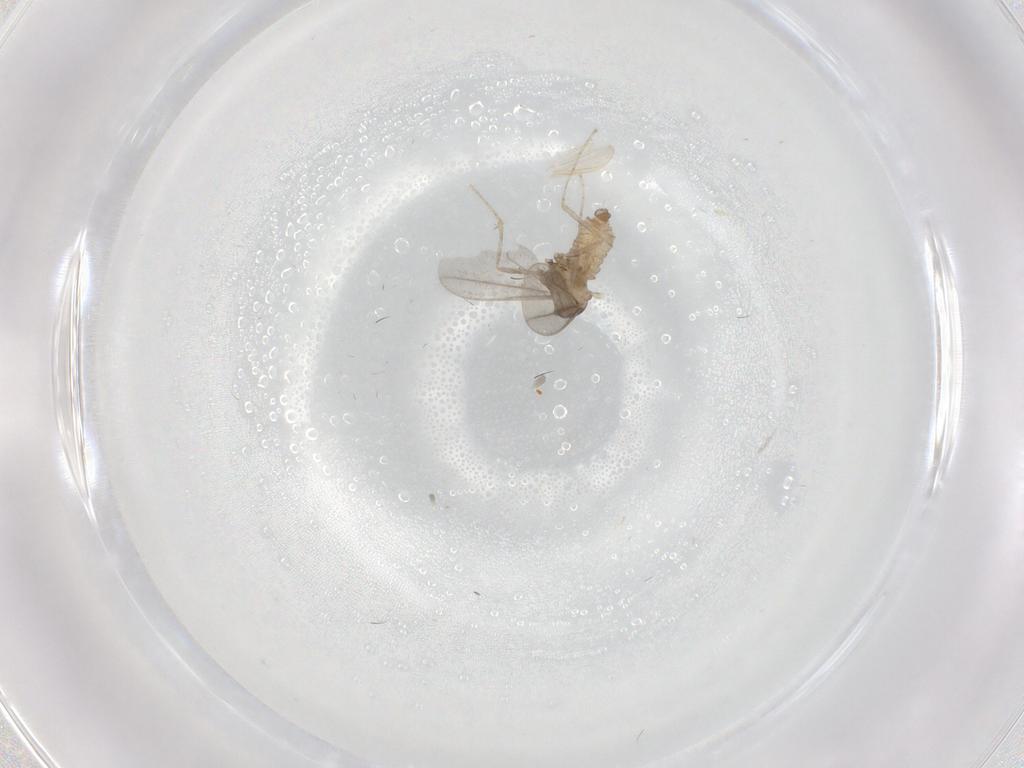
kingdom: Animalia
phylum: Arthropoda
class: Insecta
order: Diptera
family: Cecidomyiidae
